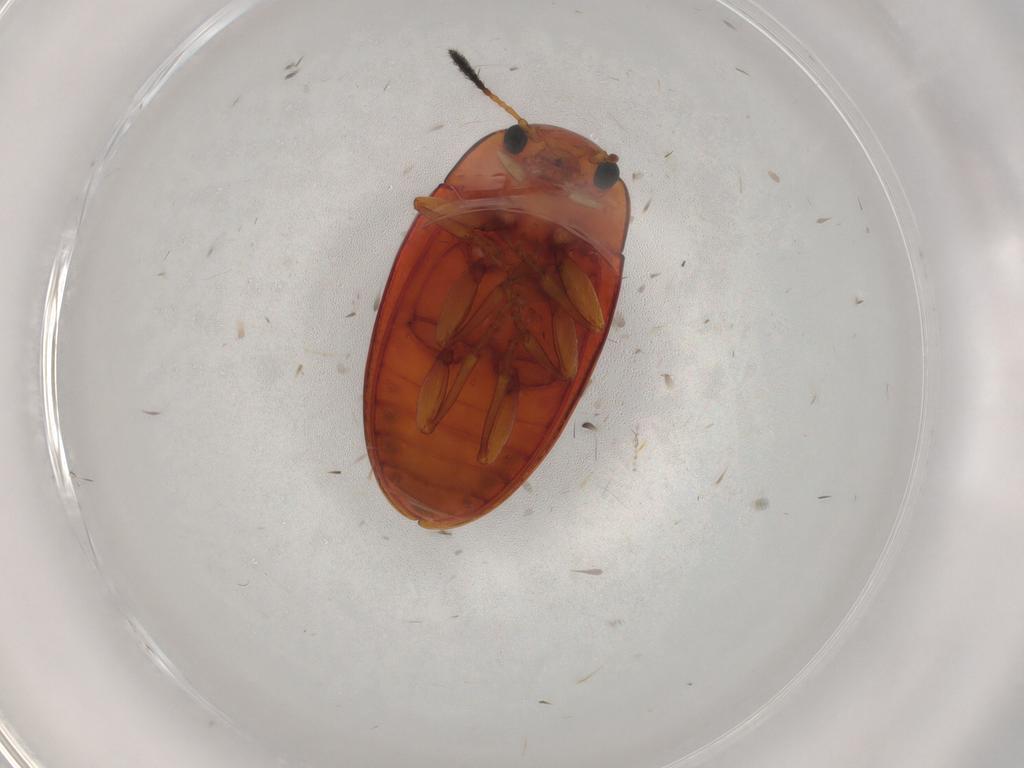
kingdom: Animalia
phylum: Arthropoda
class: Insecta
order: Coleoptera
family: Erotylidae
